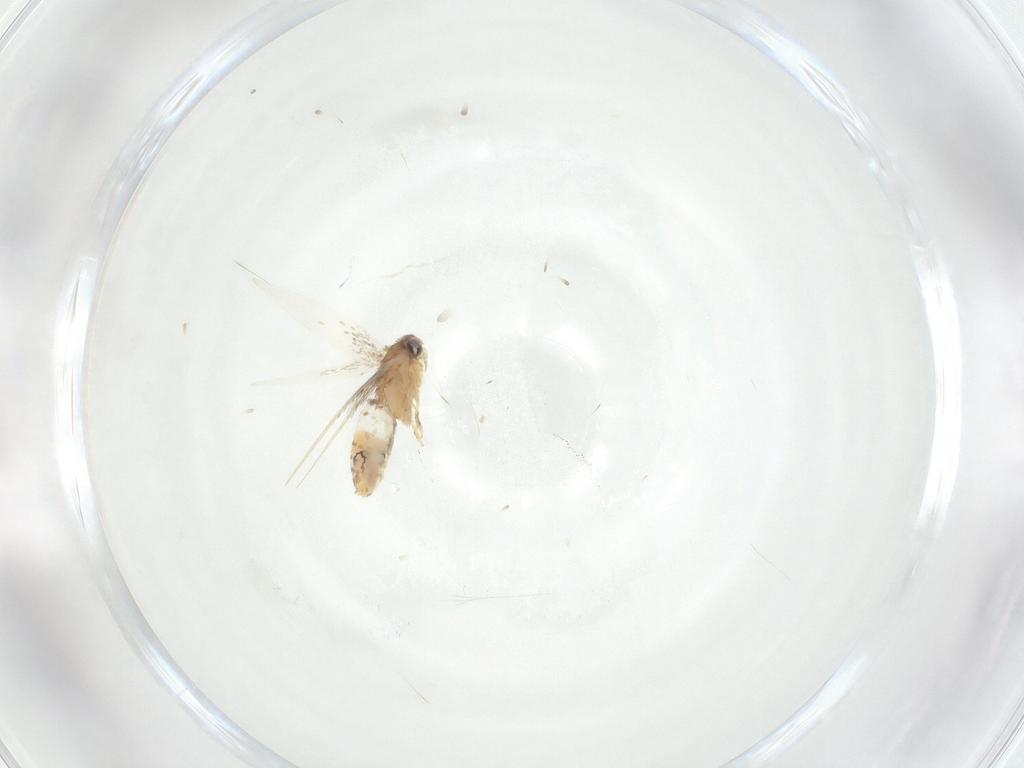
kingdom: Animalia
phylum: Arthropoda
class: Insecta
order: Lepidoptera
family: Nepticulidae
